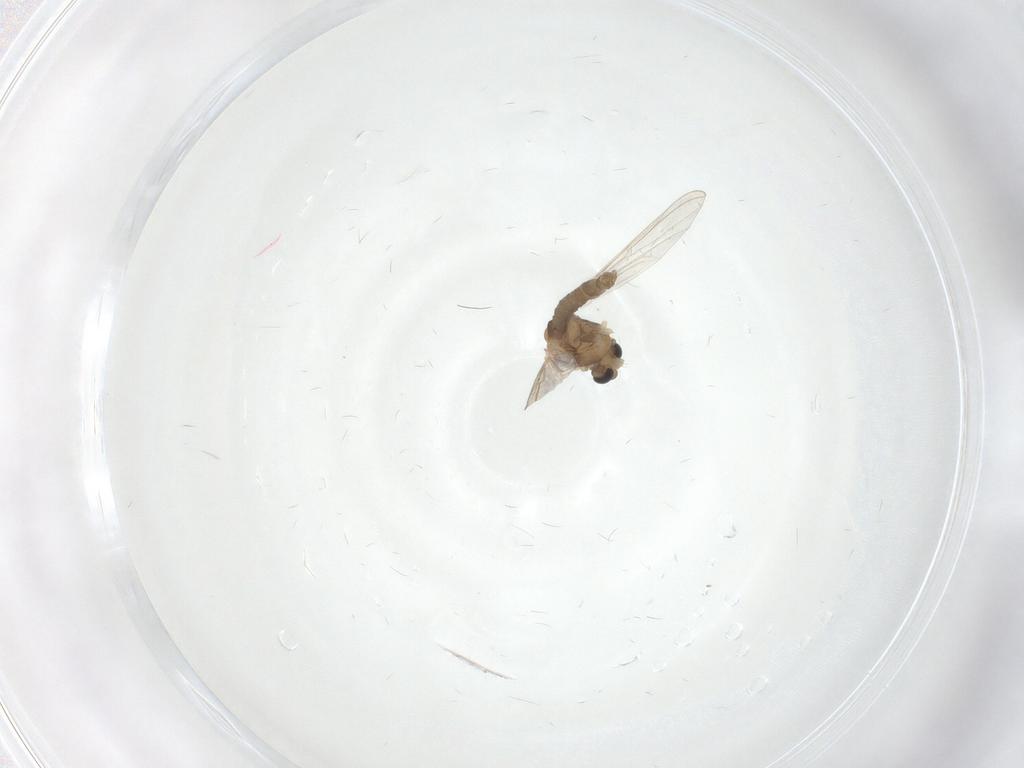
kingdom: Animalia
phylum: Arthropoda
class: Insecta
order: Diptera
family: Chironomidae
